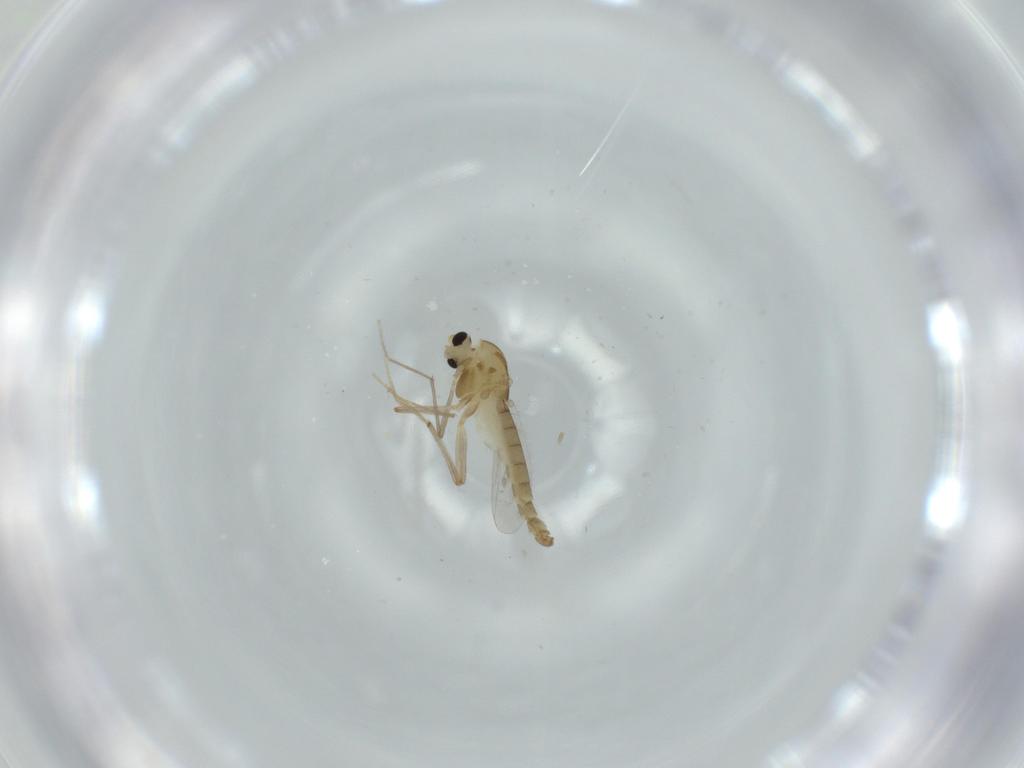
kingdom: Animalia
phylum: Arthropoda
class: Insecta
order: Diptera
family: Chironomidae
